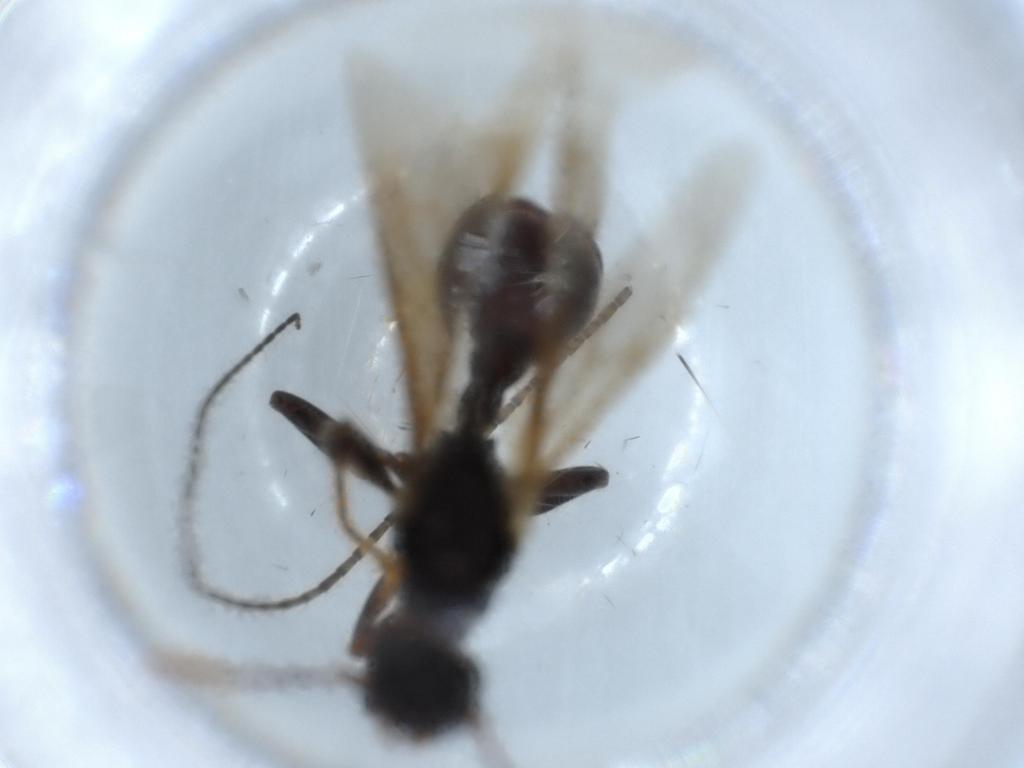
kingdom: Animalia
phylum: Arthropoda
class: Insecta
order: Hymenoptera
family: Formicidae
